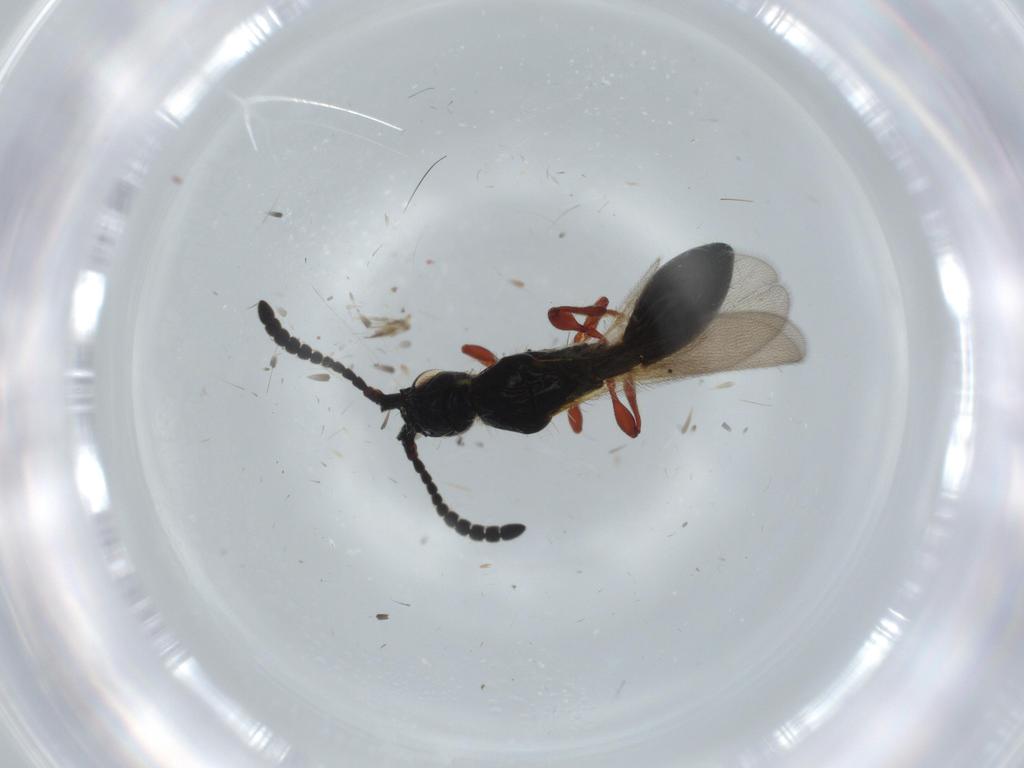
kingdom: Animalia
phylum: Arthropoda
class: Insecta
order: Hymenoptera
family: Diapriidae
